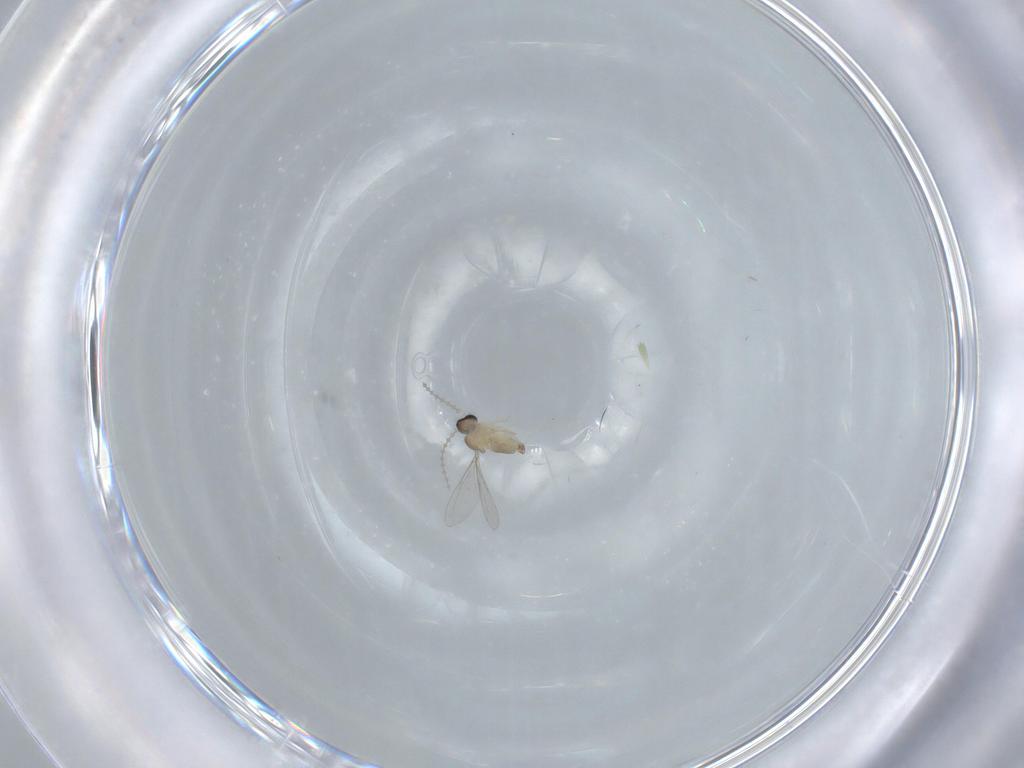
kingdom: Animalia
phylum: Arthropoda
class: Insecta
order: Diptera
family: Cecidomyiidae
